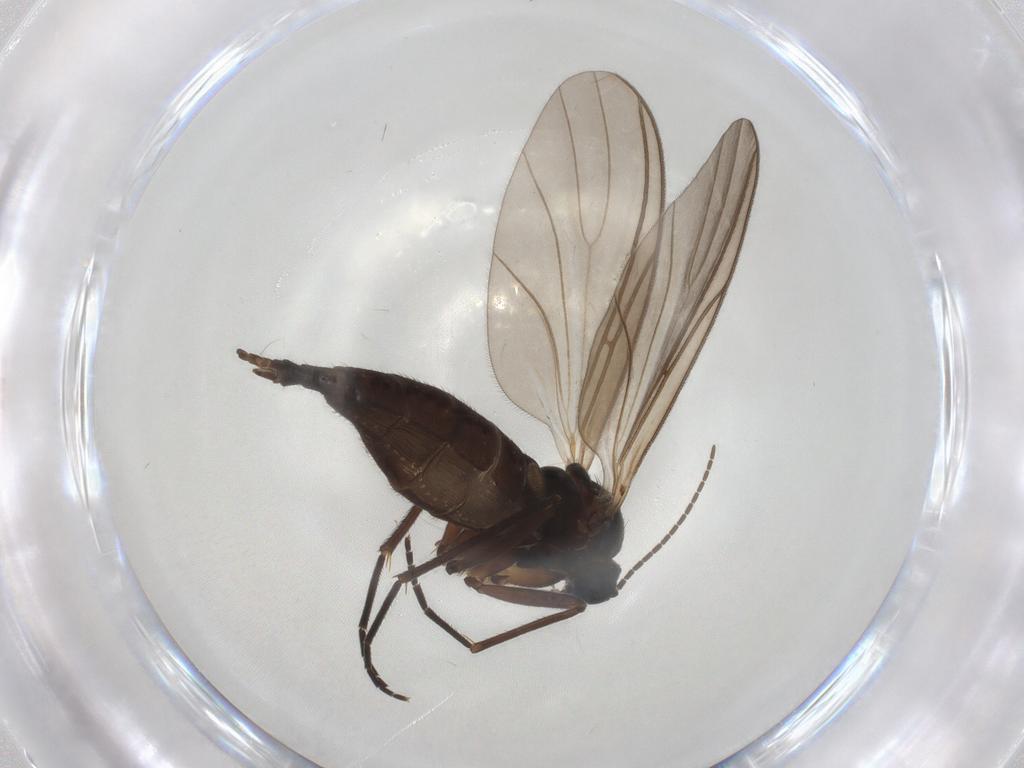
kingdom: Animalia
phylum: Arthropoda
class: Insecta
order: Diptera
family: Sciaridae
